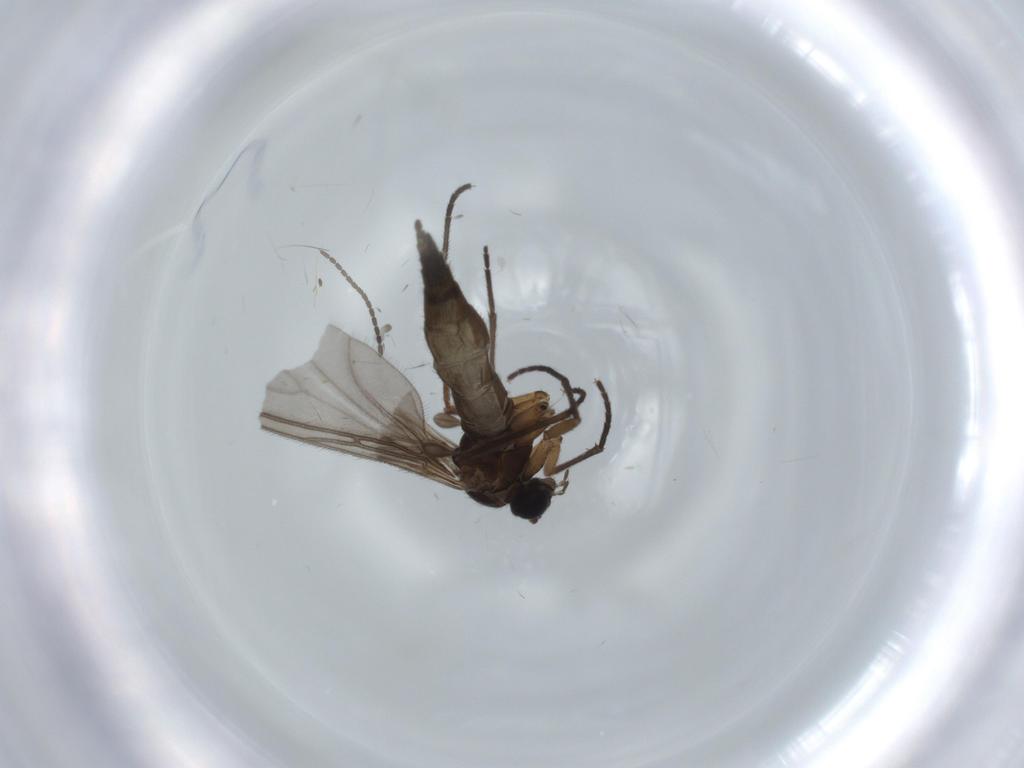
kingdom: Animalia
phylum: Arthropoda
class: Insecta
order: Diptera
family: Sciaridae
